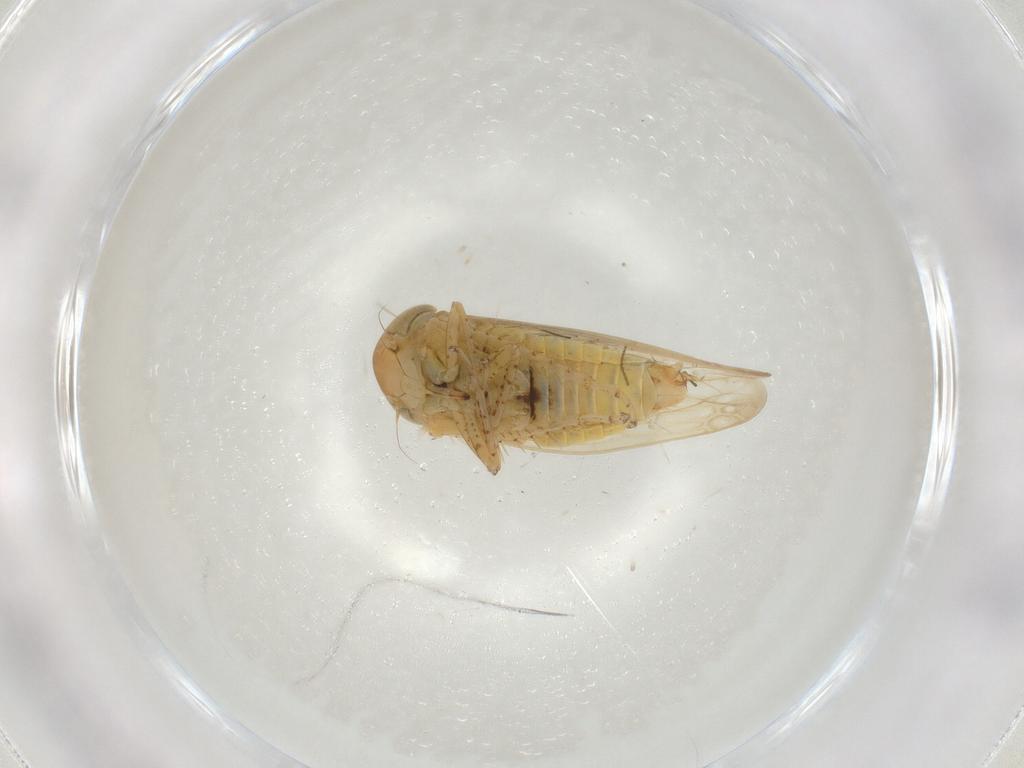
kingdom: Animalia
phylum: Arthropoda
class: Insecta
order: Hemiptera
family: Cicadellidae
